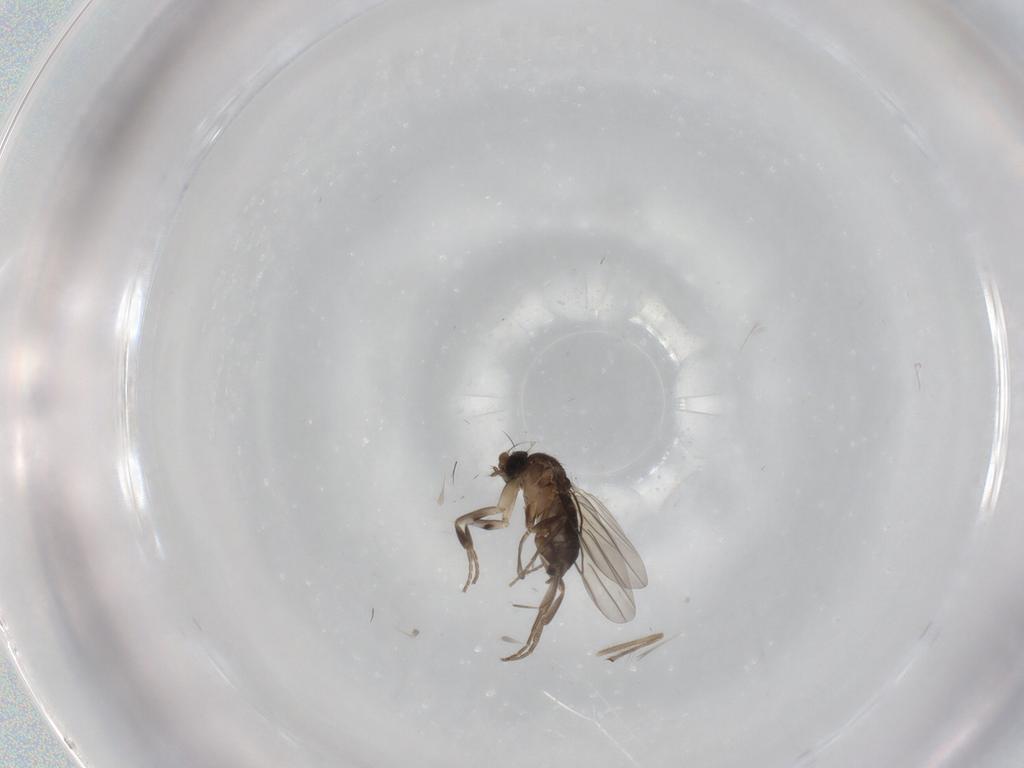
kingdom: Animalia
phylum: Arthropoda
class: Insecta
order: Diptera
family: Phoridae
